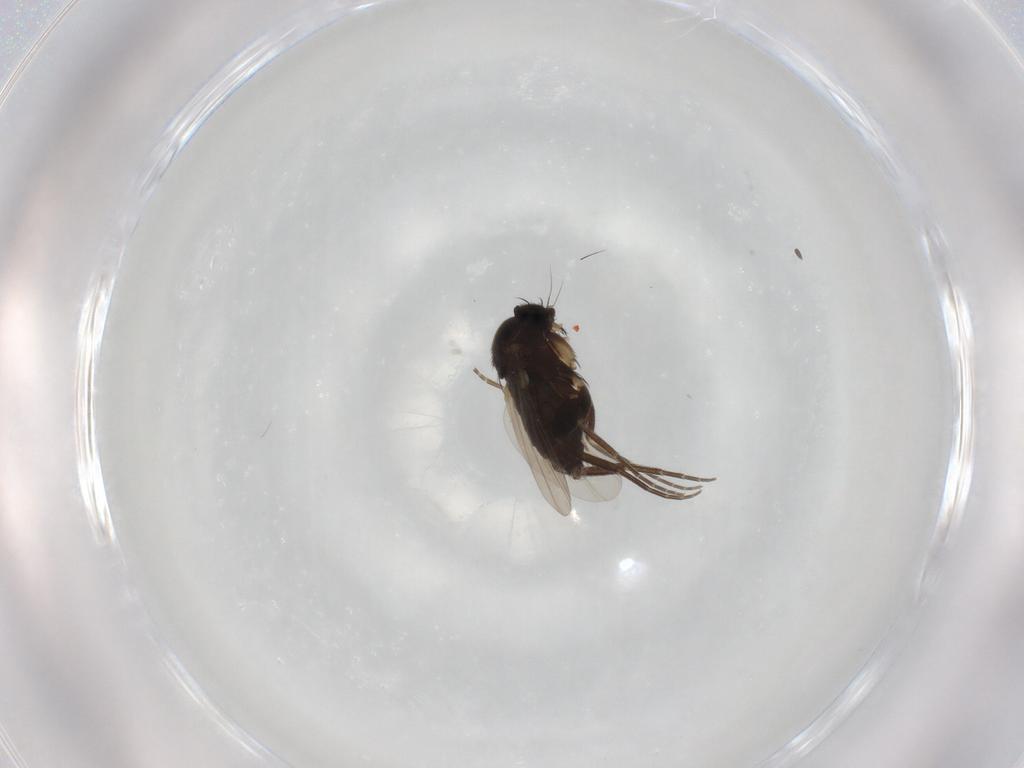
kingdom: Animalia
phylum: Arthropoda
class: Insecta
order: Diptera
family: Phoridae
